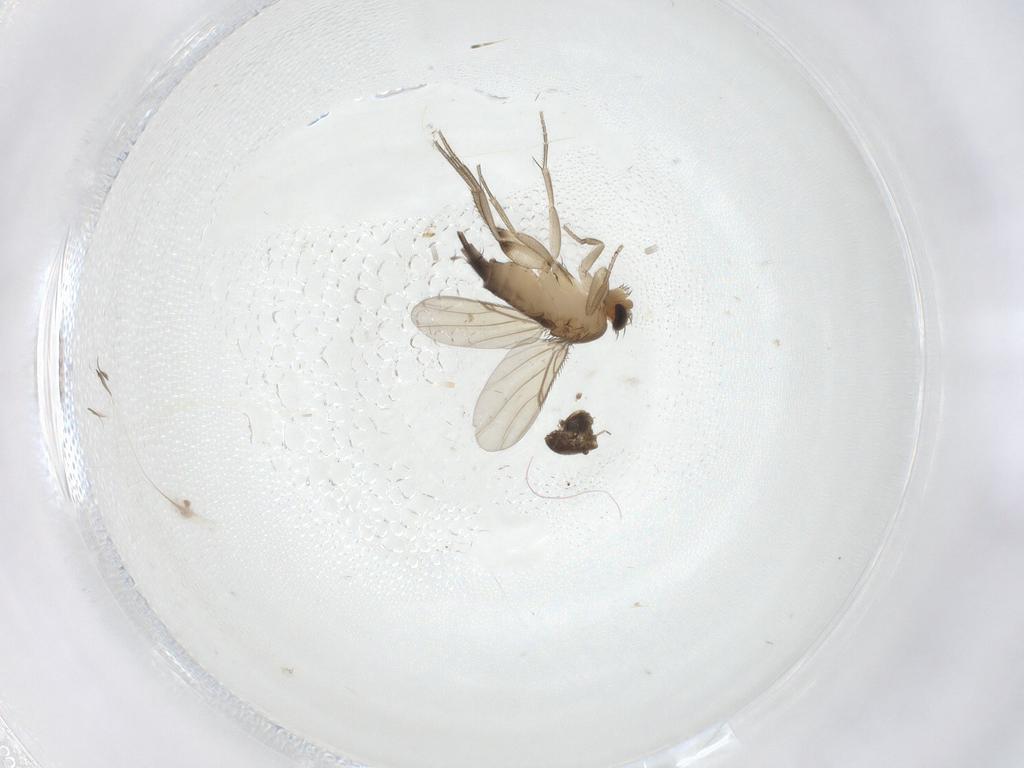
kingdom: Animalia
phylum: Arthropoda
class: Insecta
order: Diptera
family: Phoridae
